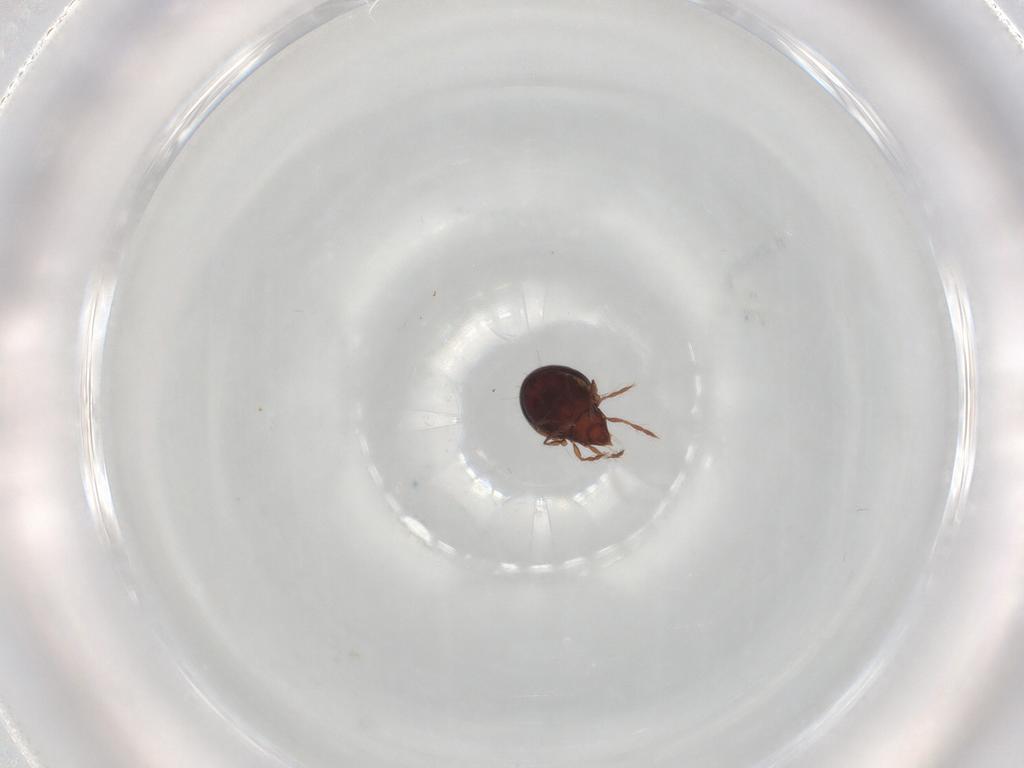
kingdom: Animalia
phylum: Arthropoda
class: Arachnida
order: Sarcoptiformes
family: Ceratoppiidae
